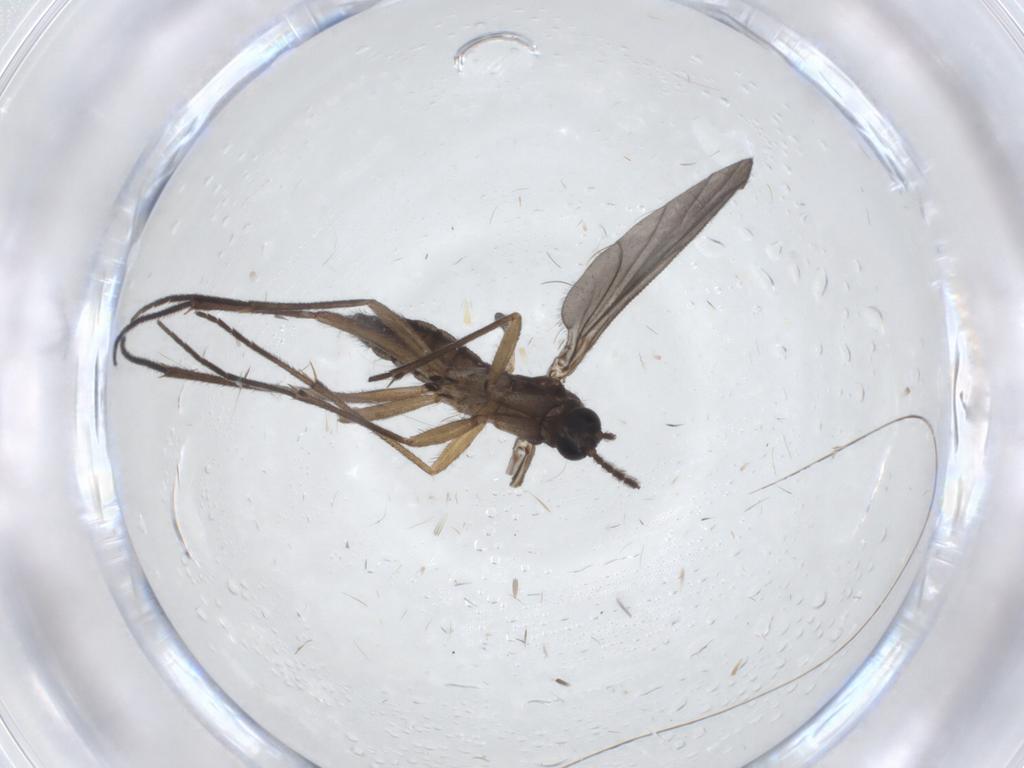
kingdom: Animalia
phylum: Arthropoda
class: Insecta
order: Diptera
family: Sciaridae
